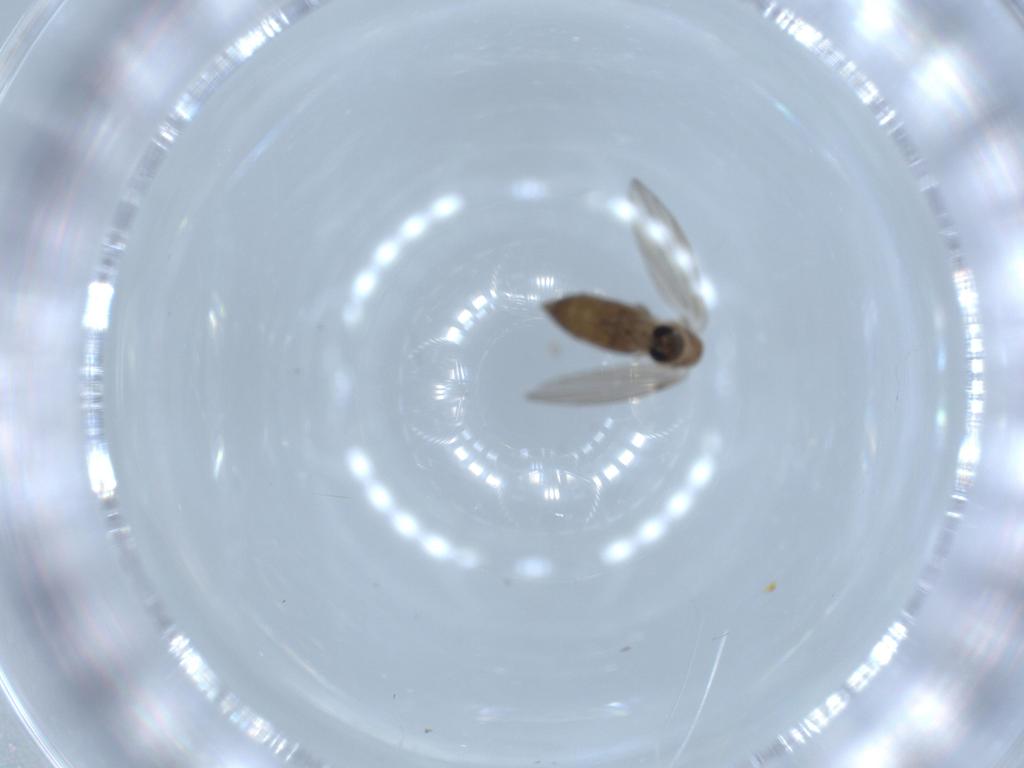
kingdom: Animalia
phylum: Arthropoda
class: Insecta
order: Diptera
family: Psychodidae
